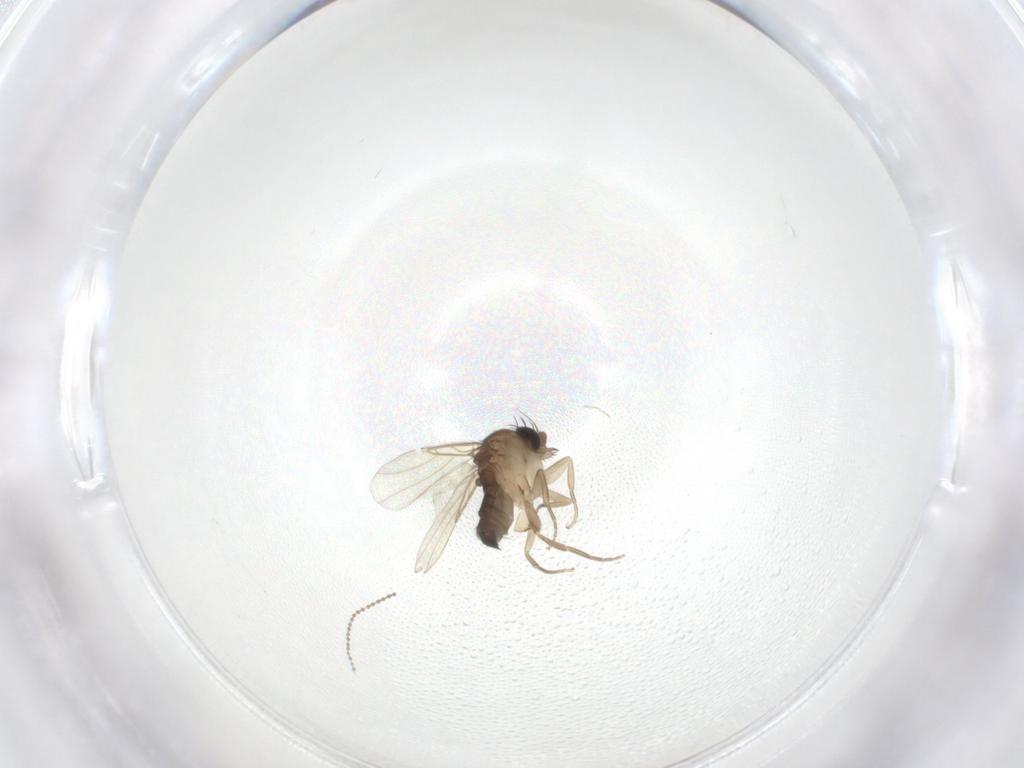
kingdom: Animalia
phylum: Arthropoda
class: Insecta
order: Diptera
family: Phoridae
